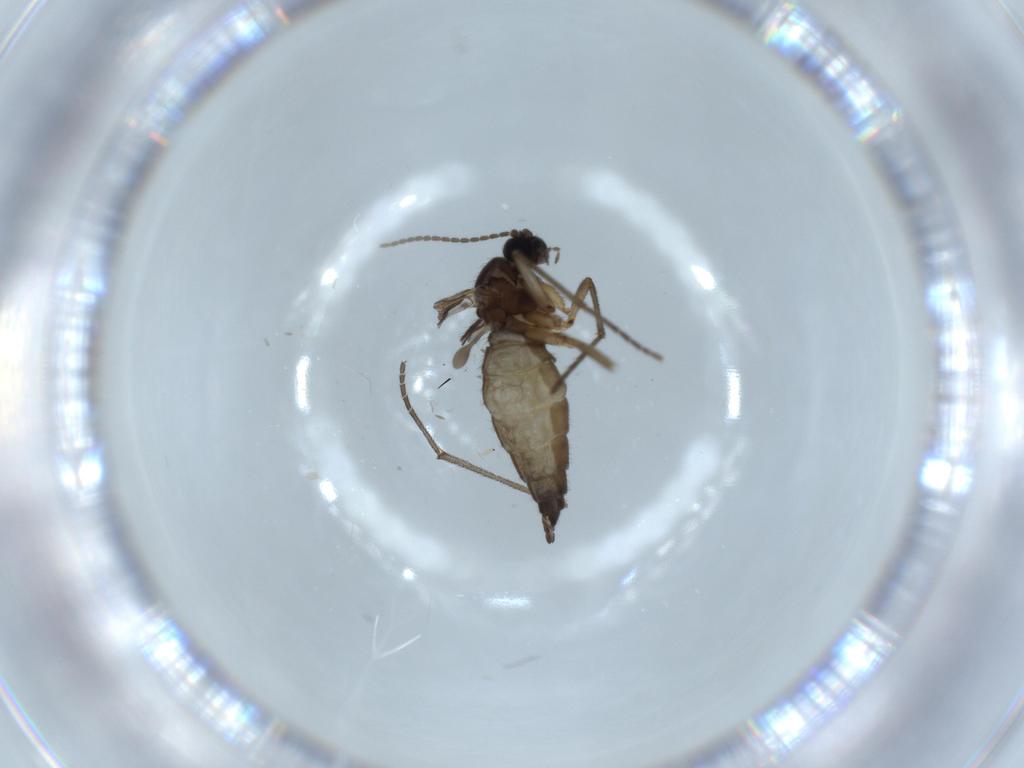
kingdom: Animalia
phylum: Arthropoda
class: Insecta
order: Diptera
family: Sciaridae
